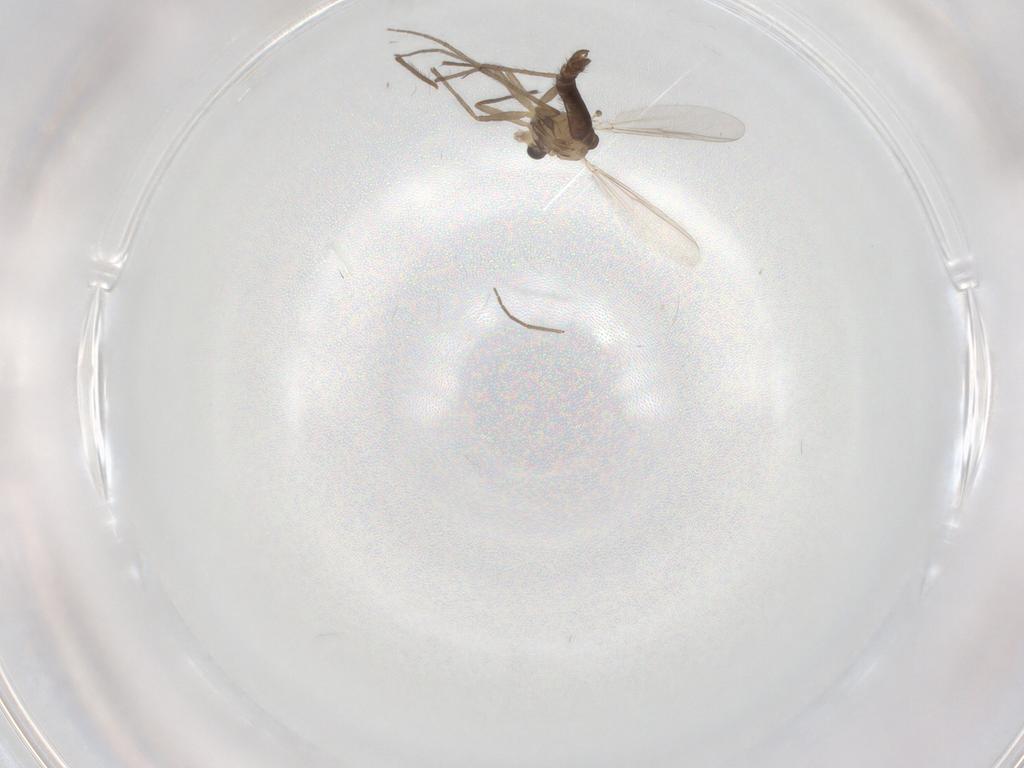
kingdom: Animalia
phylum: Arthropoda
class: Insecta
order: Diptera
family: Chironomidae
